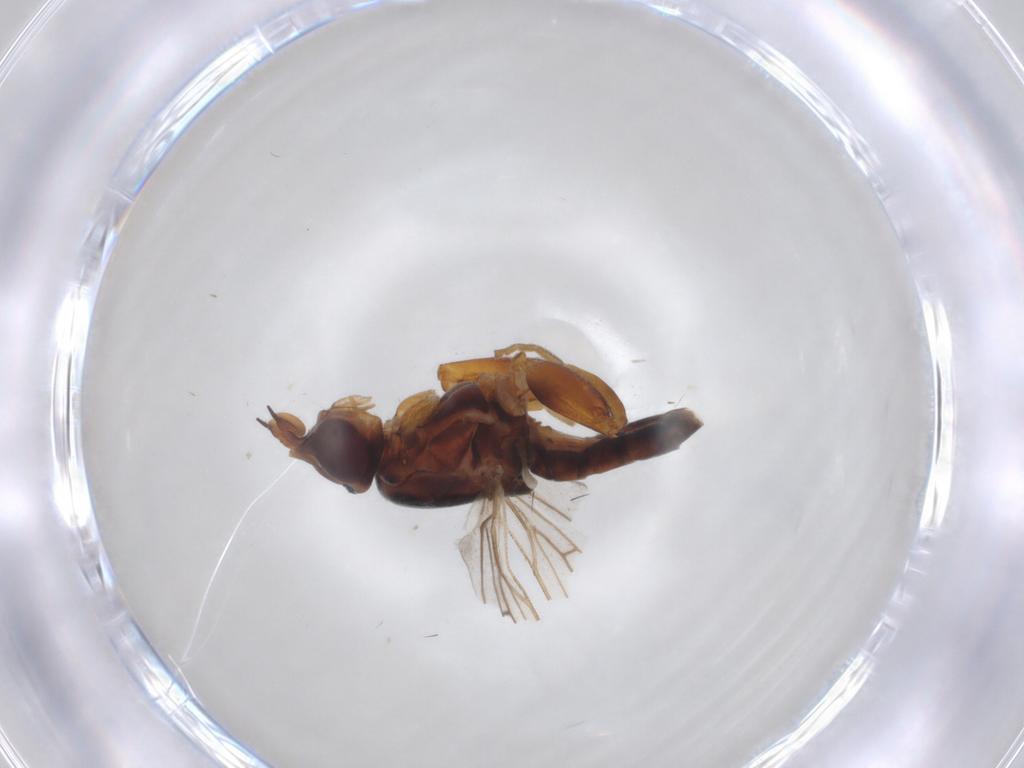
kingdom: Animalia
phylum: Arthropoda
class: Insecta
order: Diptera
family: Chloropidae
